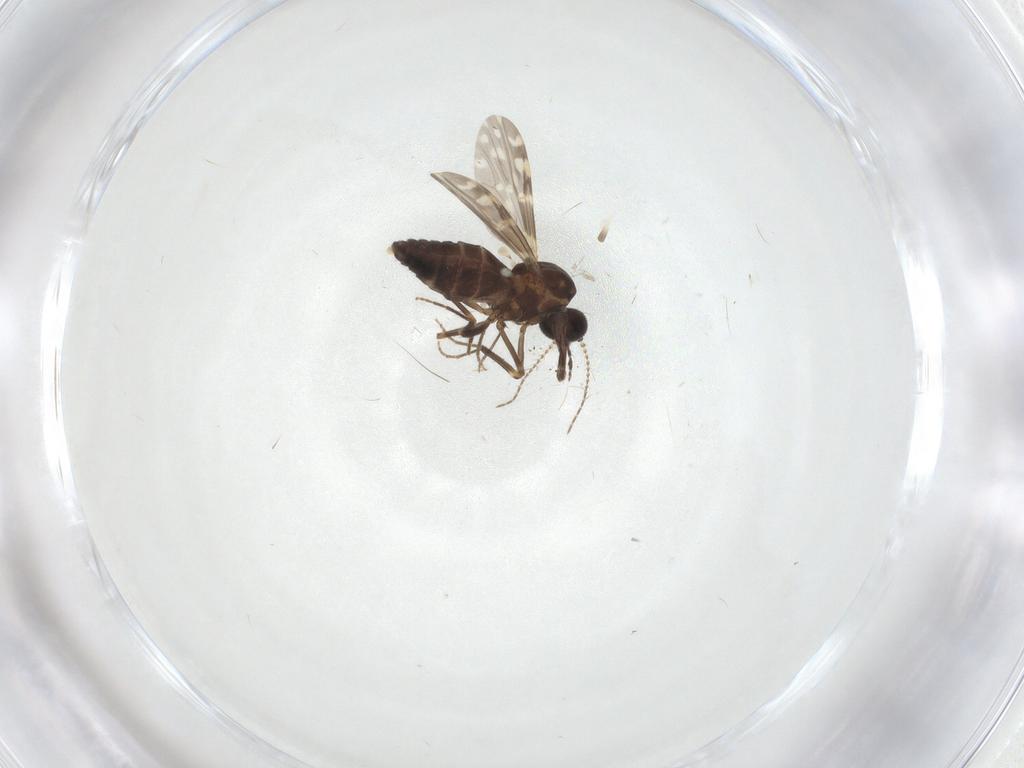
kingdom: Animalia
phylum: Arthropoda
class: Insecta
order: Diptera
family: Ceratopogonidae
